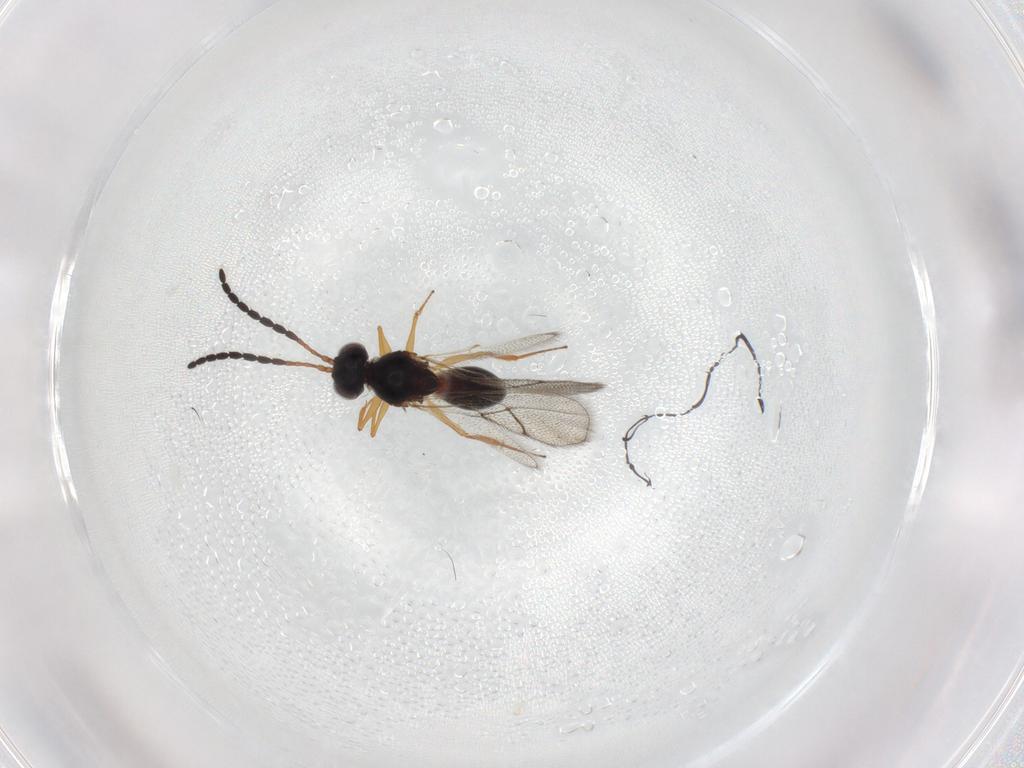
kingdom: Animalia
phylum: Arthropoda
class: Insecta
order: Hymenoptera
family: Figitidae
